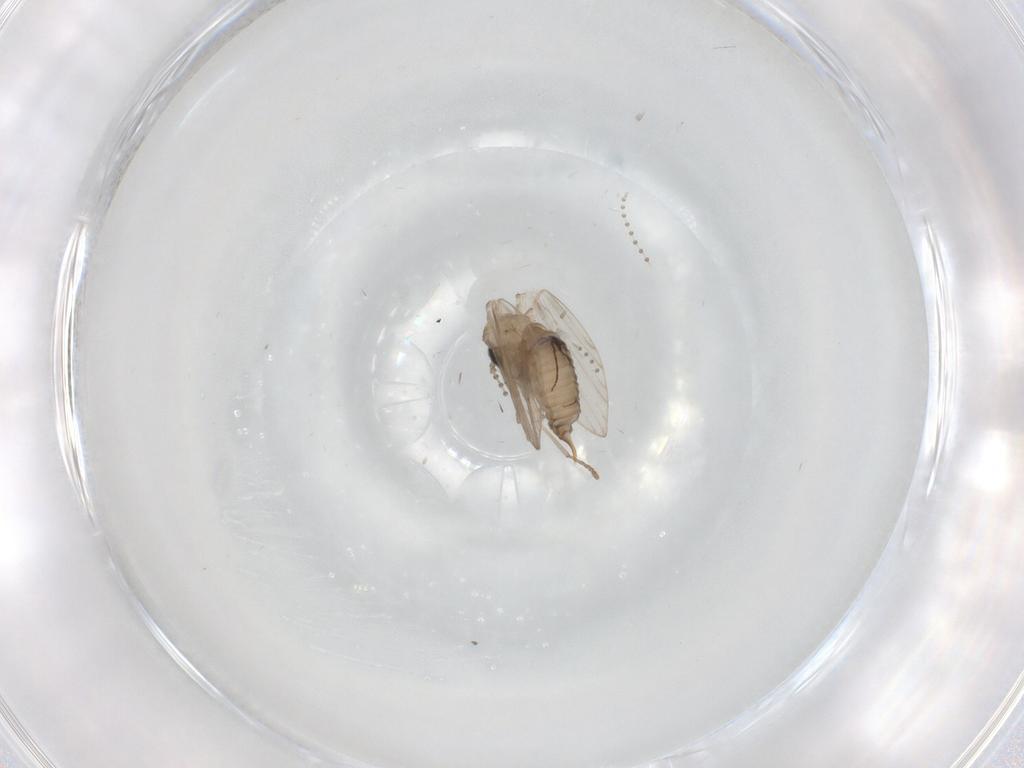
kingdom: Animalia
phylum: Arthropoda
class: Insecta
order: Diptera
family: Psychodidae
